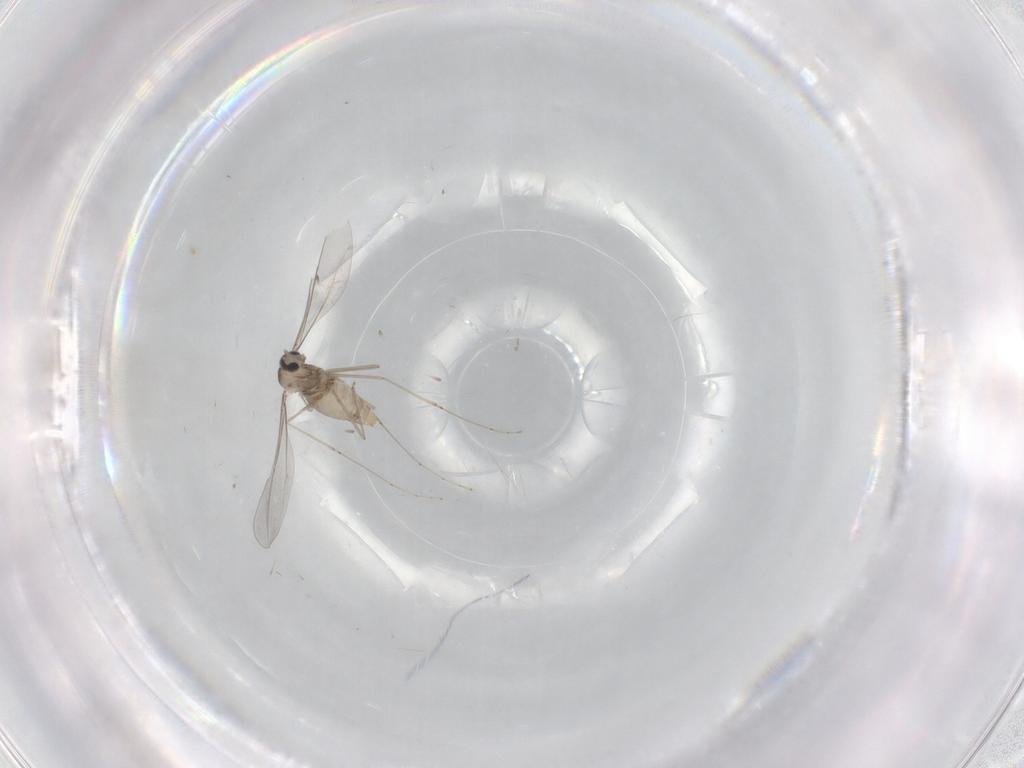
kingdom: Animalia
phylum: Arthropoda
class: Insecta
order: Diptera
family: Cecidomyiidae
